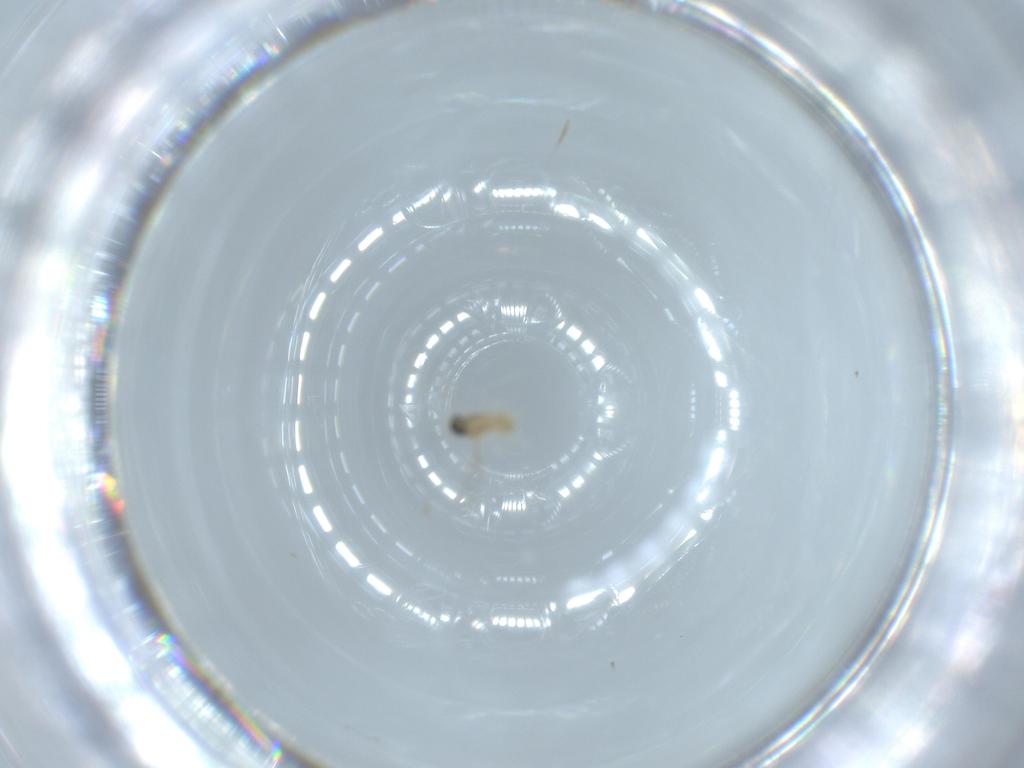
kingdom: Animalia
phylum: Arthropoda
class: Insecta
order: Diptera
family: Cecidomyiidae
